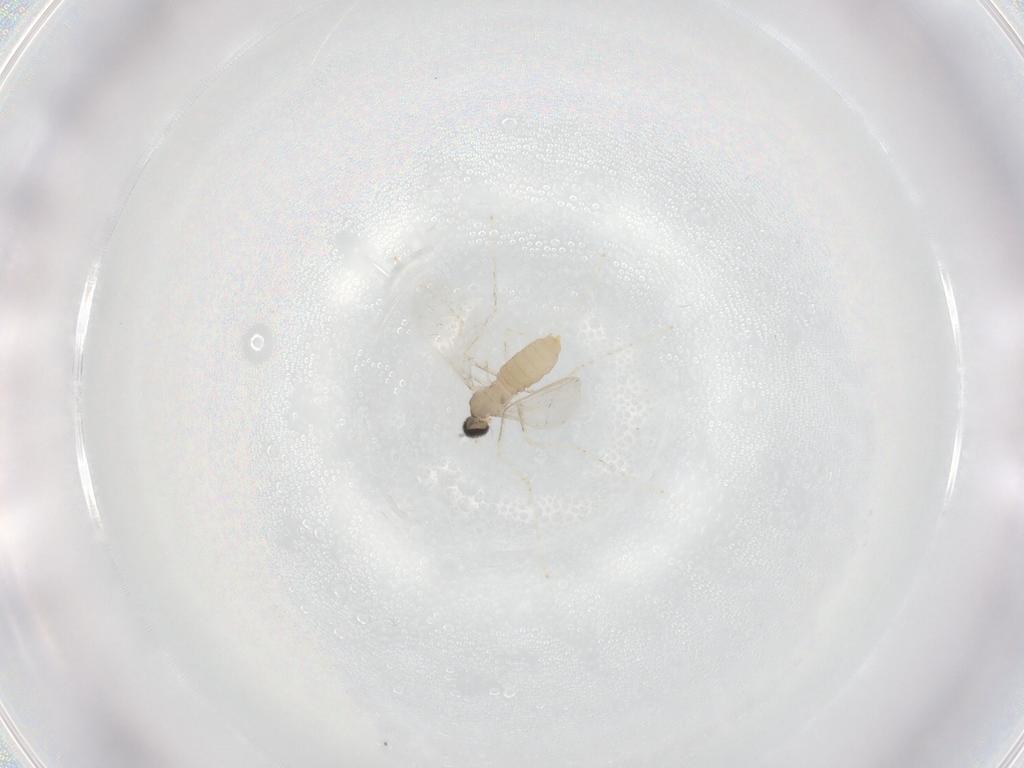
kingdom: Animalia
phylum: Arthropoda
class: Insecta
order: Diptera
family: Cecidomyiidae
